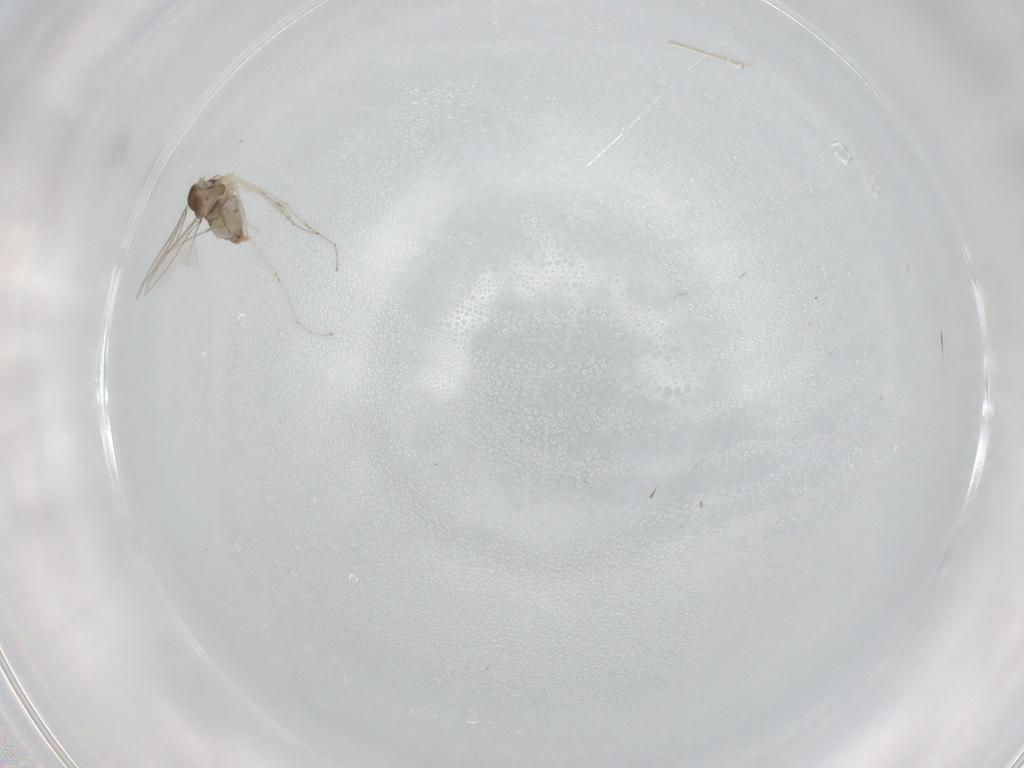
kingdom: Animalia
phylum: Arthropoda
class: Insecta
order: Diptera
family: Cecidomyiidae
